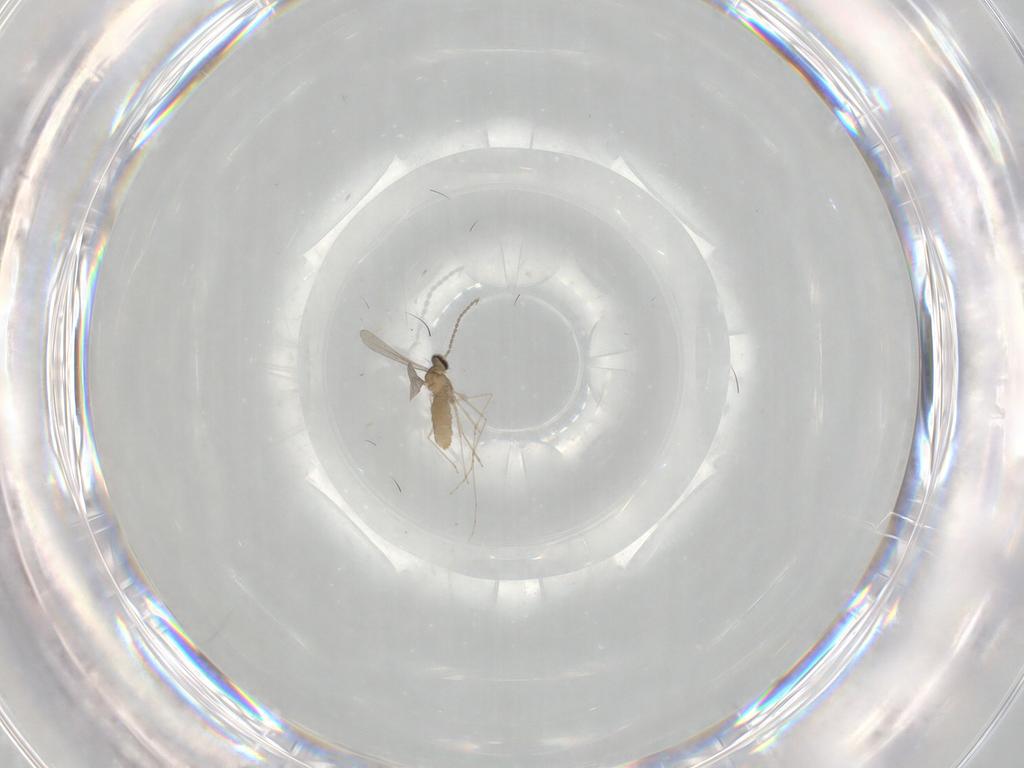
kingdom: Animalia
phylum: Arthropoda
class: Insecta
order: Diptera
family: Cecidomyiidae
